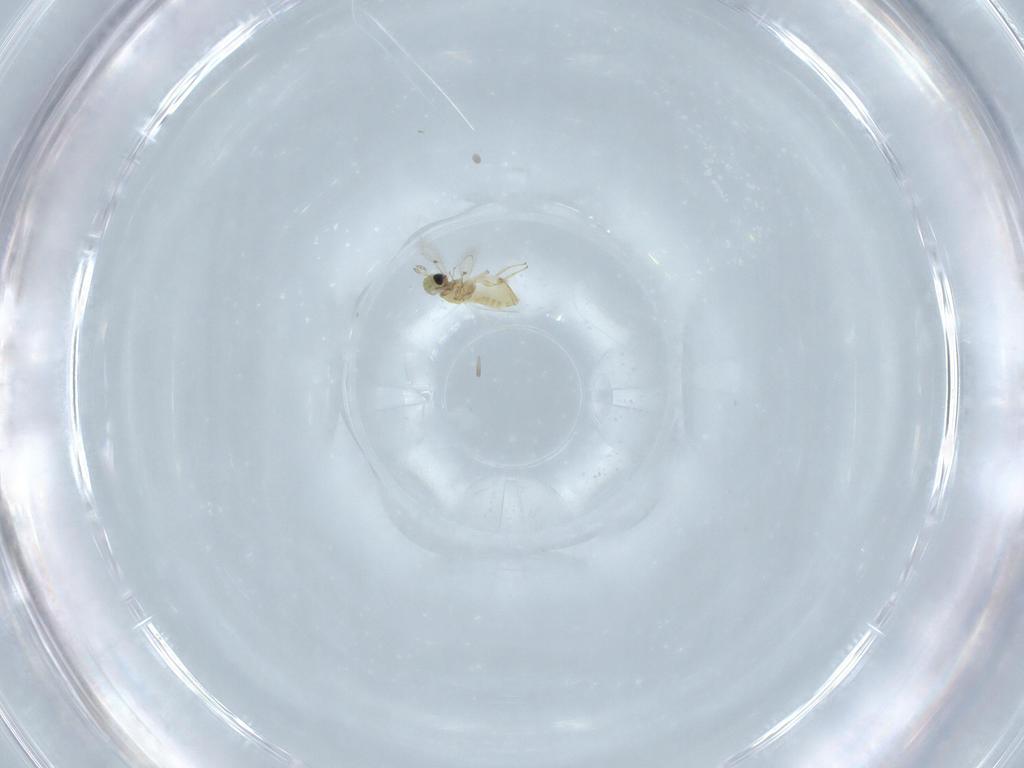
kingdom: Animalia
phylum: Arthropoda
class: Insecta
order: Hymenoptera
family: Trichogrammatidae
